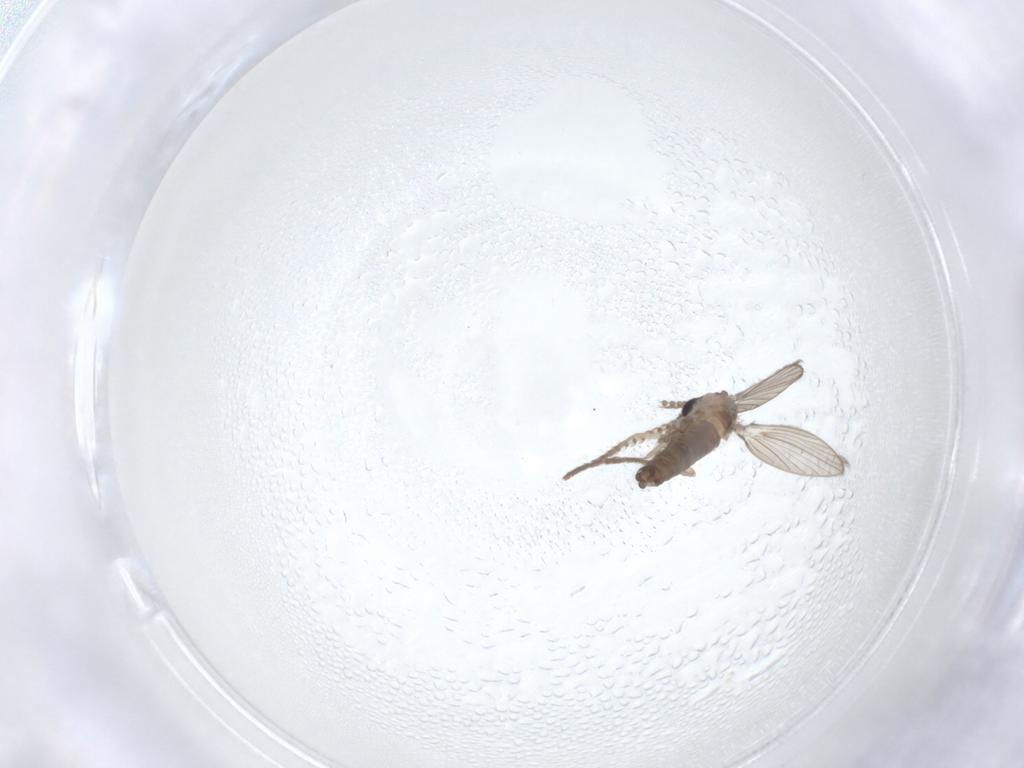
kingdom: Animalia
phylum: Arthropoda
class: Insecta
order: Diptera
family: Psychodidae
